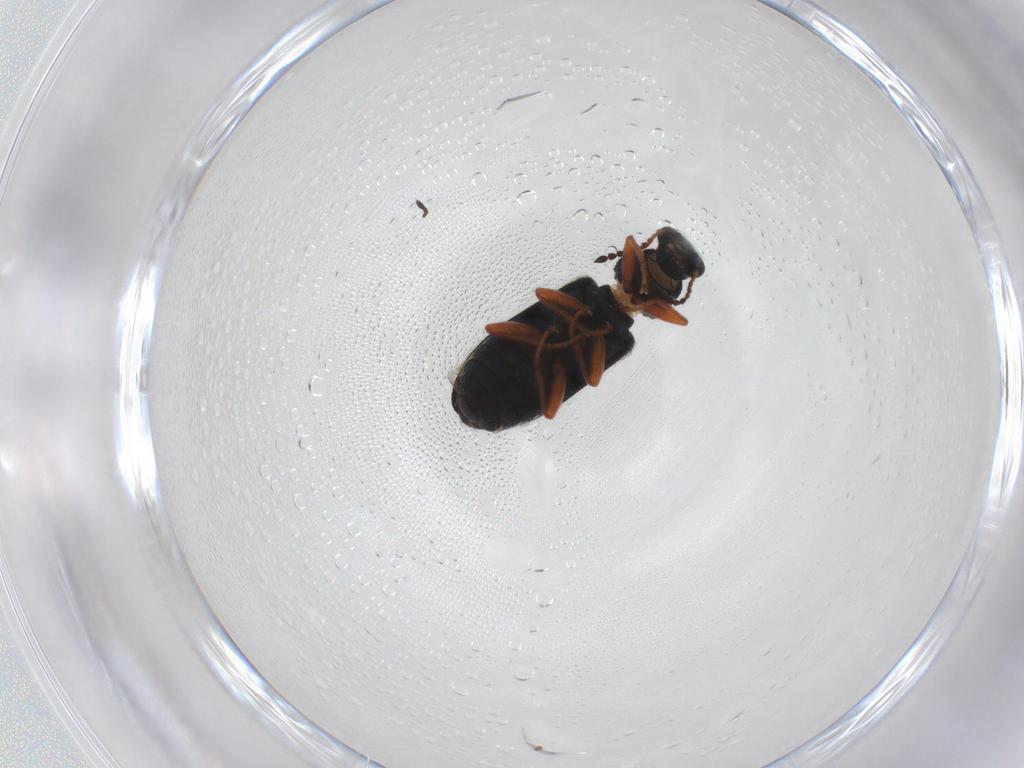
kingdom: Animalia
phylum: Arthropoda
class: Insecta
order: Coleoptera
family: Melyridae
